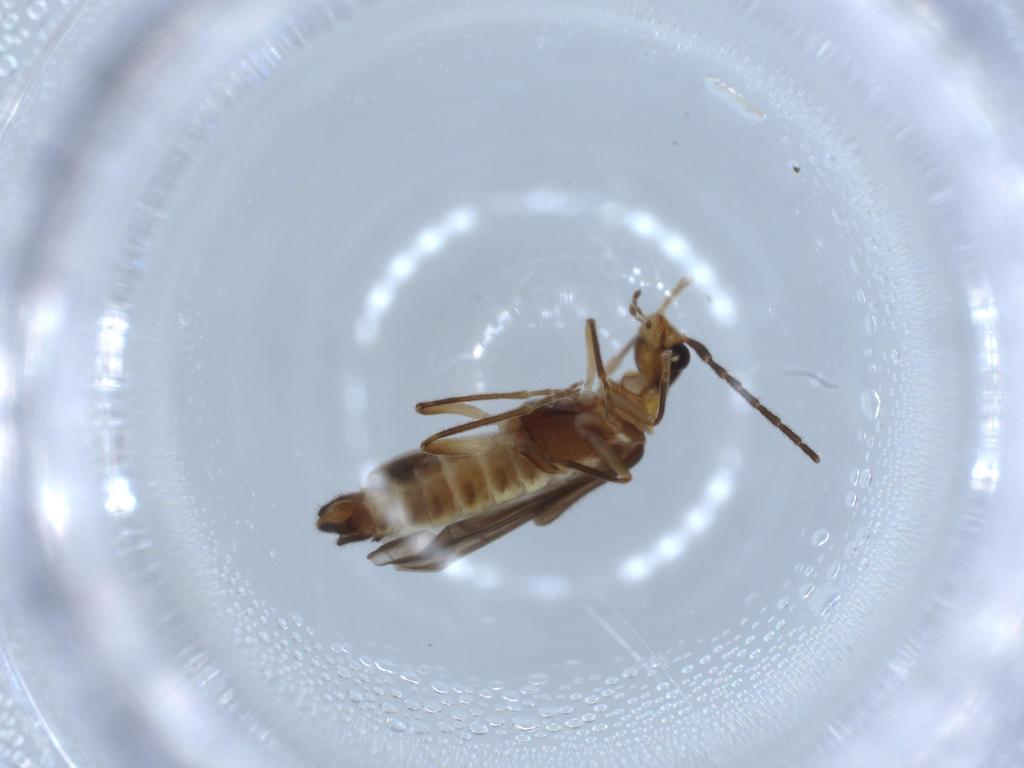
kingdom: Animalia
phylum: Arthropoda
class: Insecta
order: Coleoptera
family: Cantharidae
